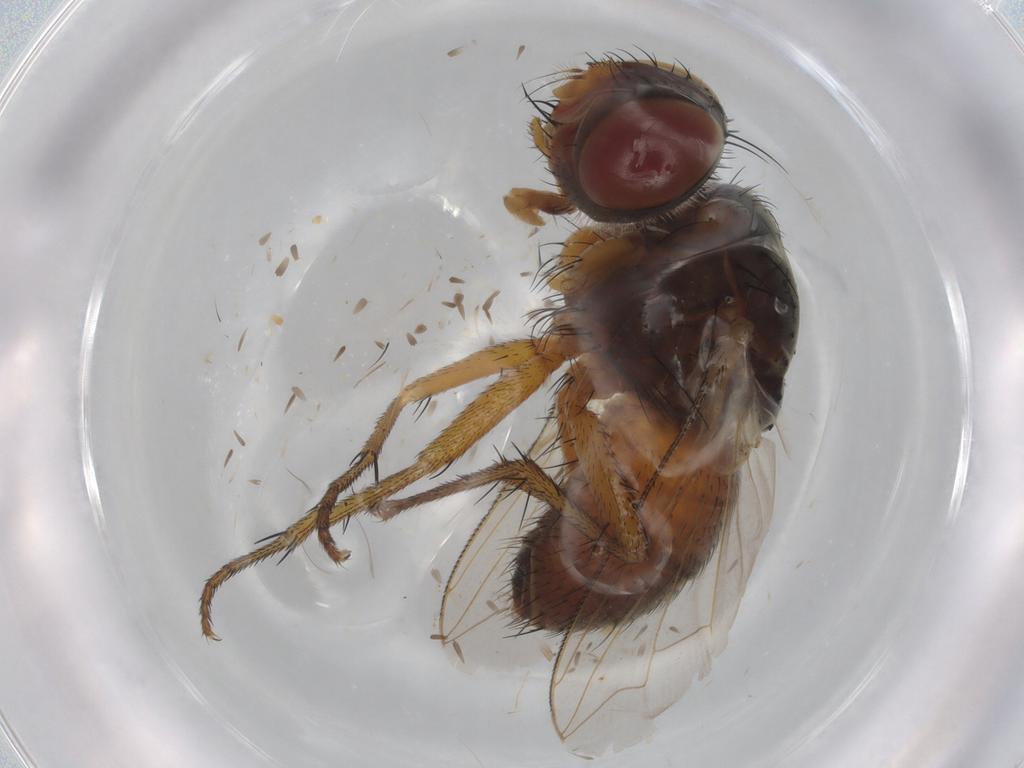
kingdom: Animalia
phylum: Arthropoda
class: Insecta
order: Diptera
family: Sarcophagidae
